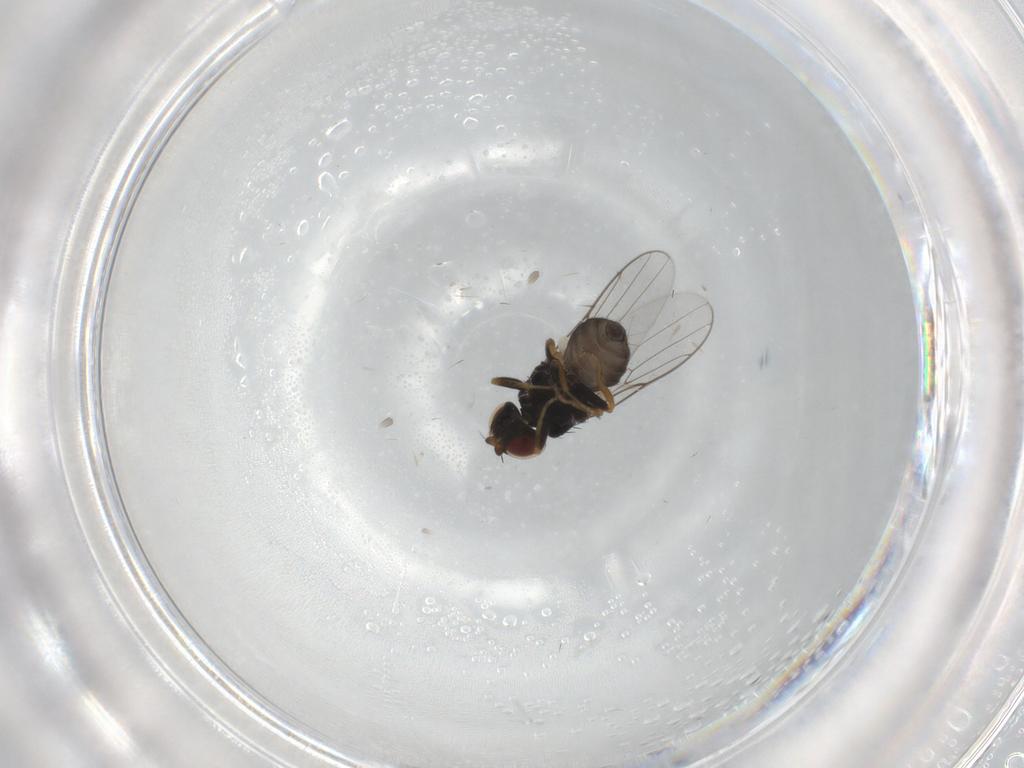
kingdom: Animalia
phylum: Arthropoda
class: Insecta
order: Diptera
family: Chloropidae
